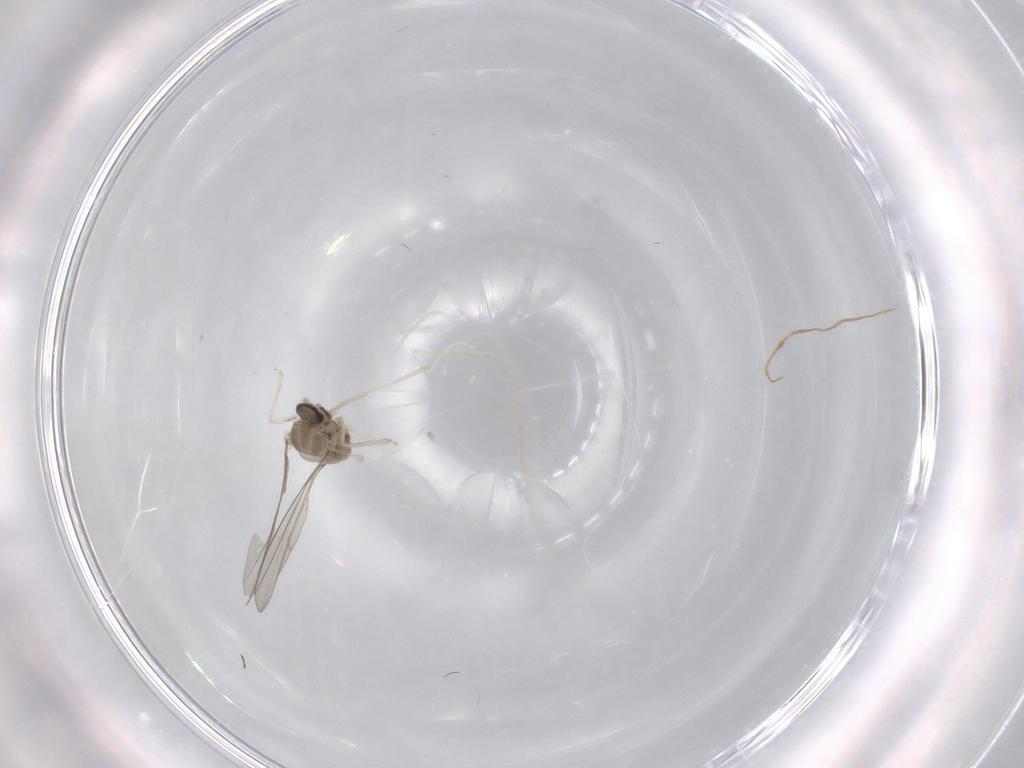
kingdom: Animalia
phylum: Arthropoda
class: Insecta
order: Diptera
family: Cecidomyiidae
